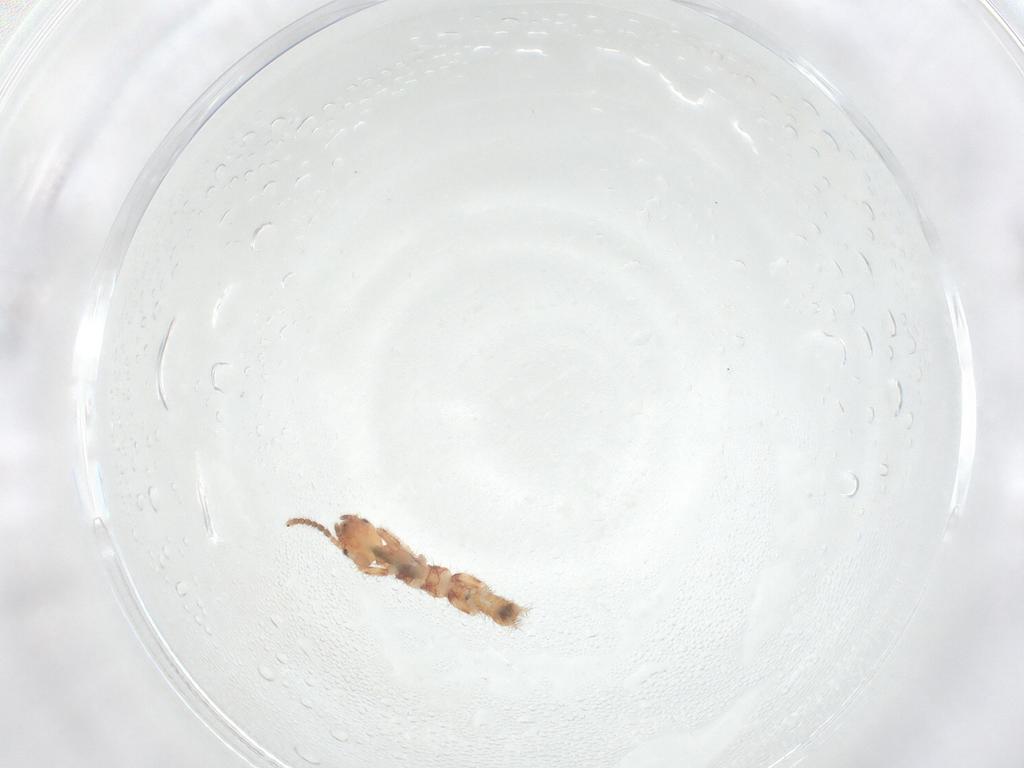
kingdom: Animalia
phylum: Arthropoda
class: Insecta
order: Embioptera
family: Anisembiidae
